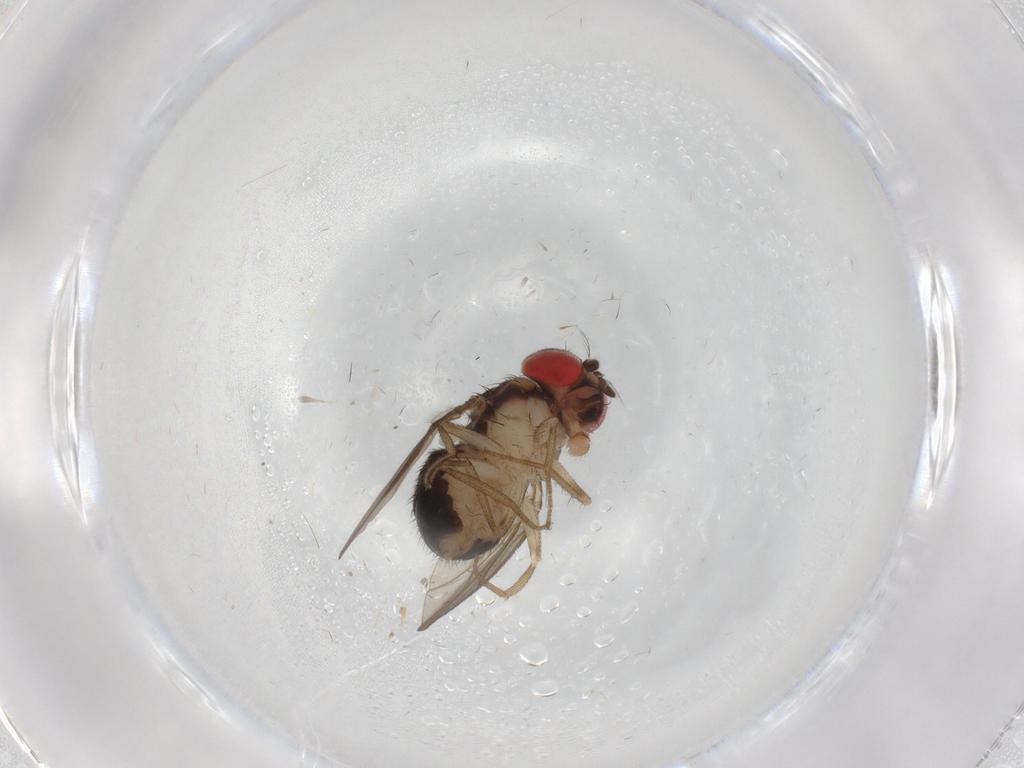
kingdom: Animalia
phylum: Arthropoda
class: Insecta
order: Diptera
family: Drosophilidae
